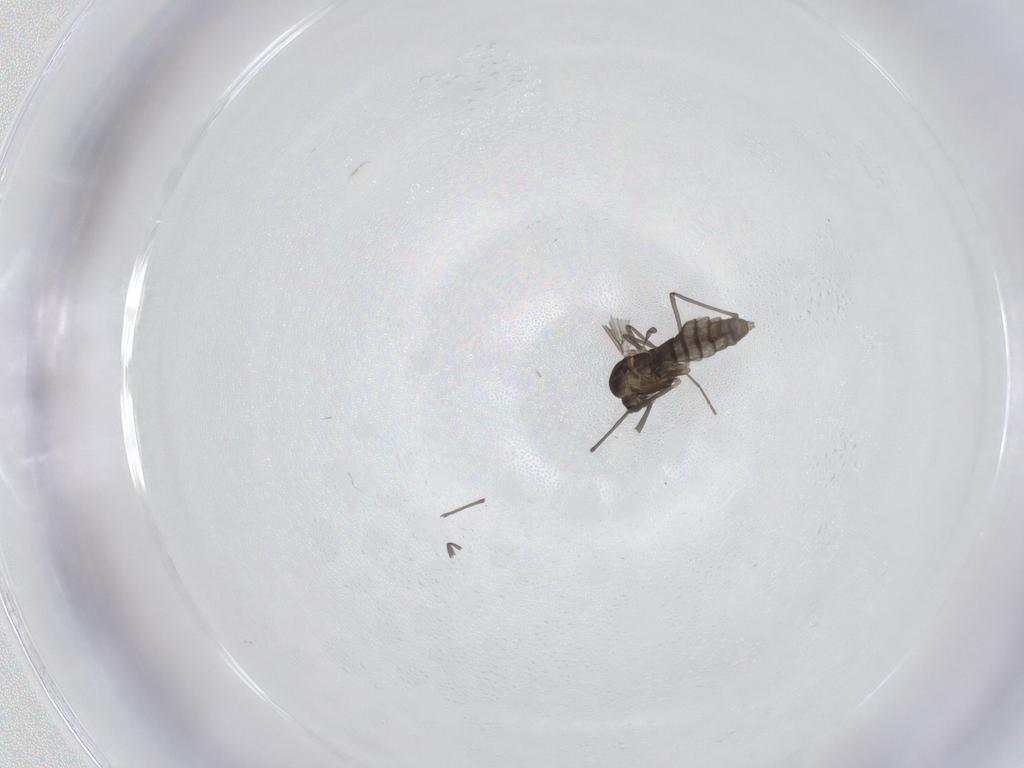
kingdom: Animalia
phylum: Arthropoda
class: Insecta
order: Diptera
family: Chironomidae
